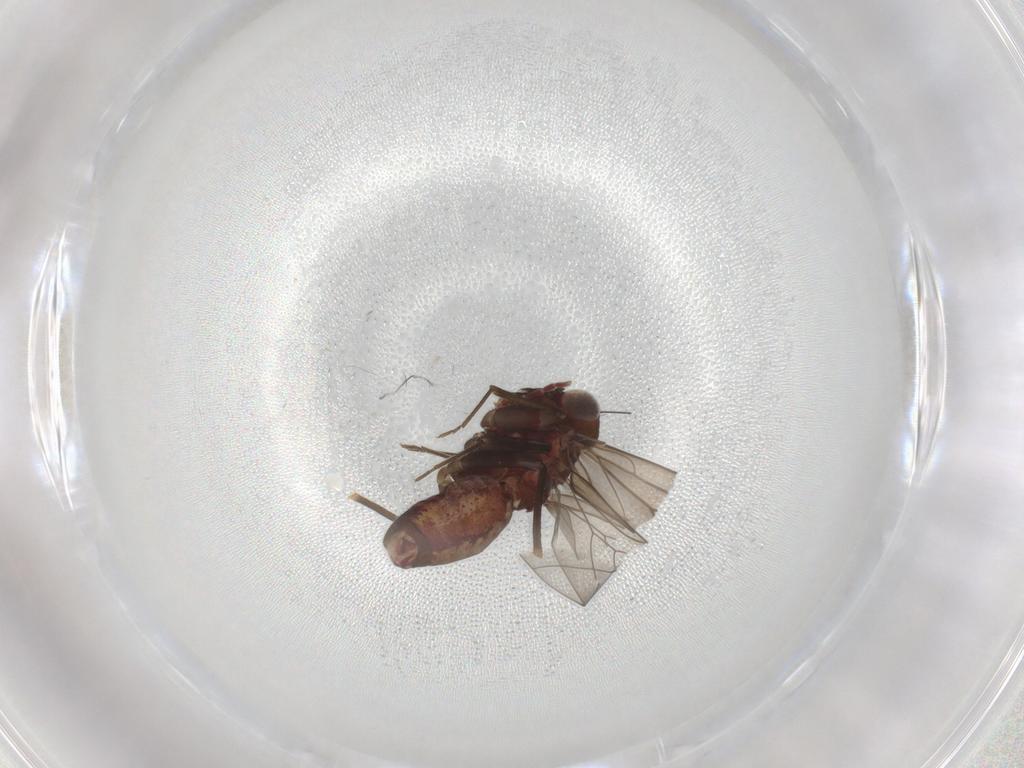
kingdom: Animalia
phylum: Arthropoda
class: Insecta
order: Psocodea
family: Philotarsidae
